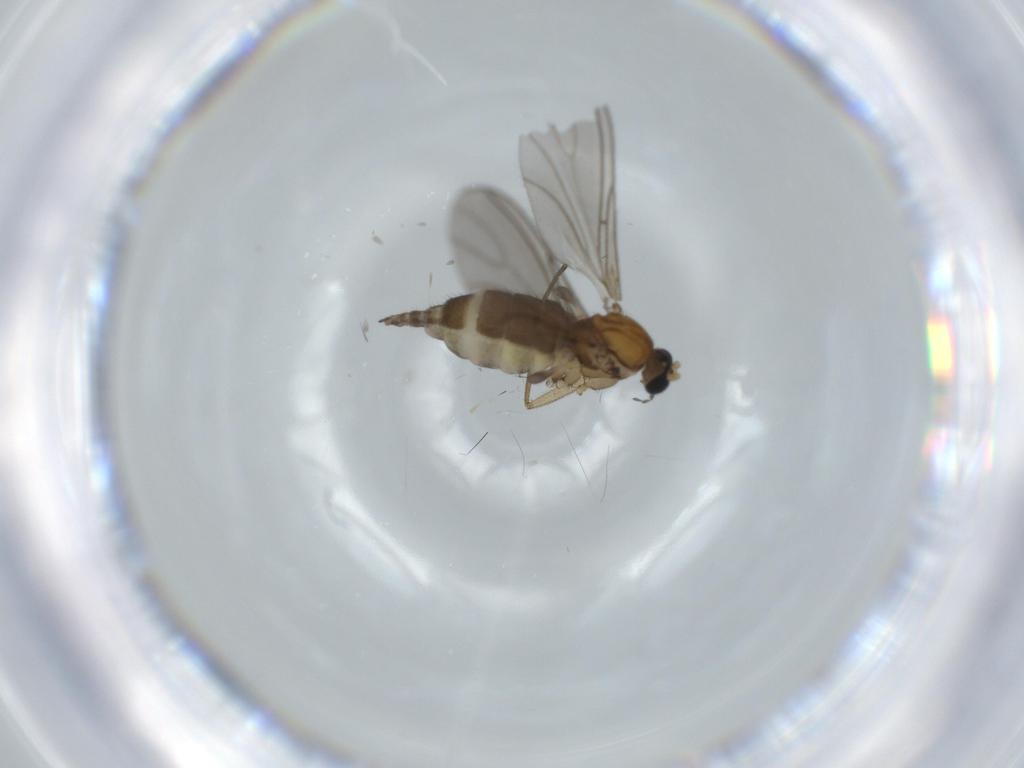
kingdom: Animalia
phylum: Arthropoda
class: Insecta
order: Diptera
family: Sciaridae
